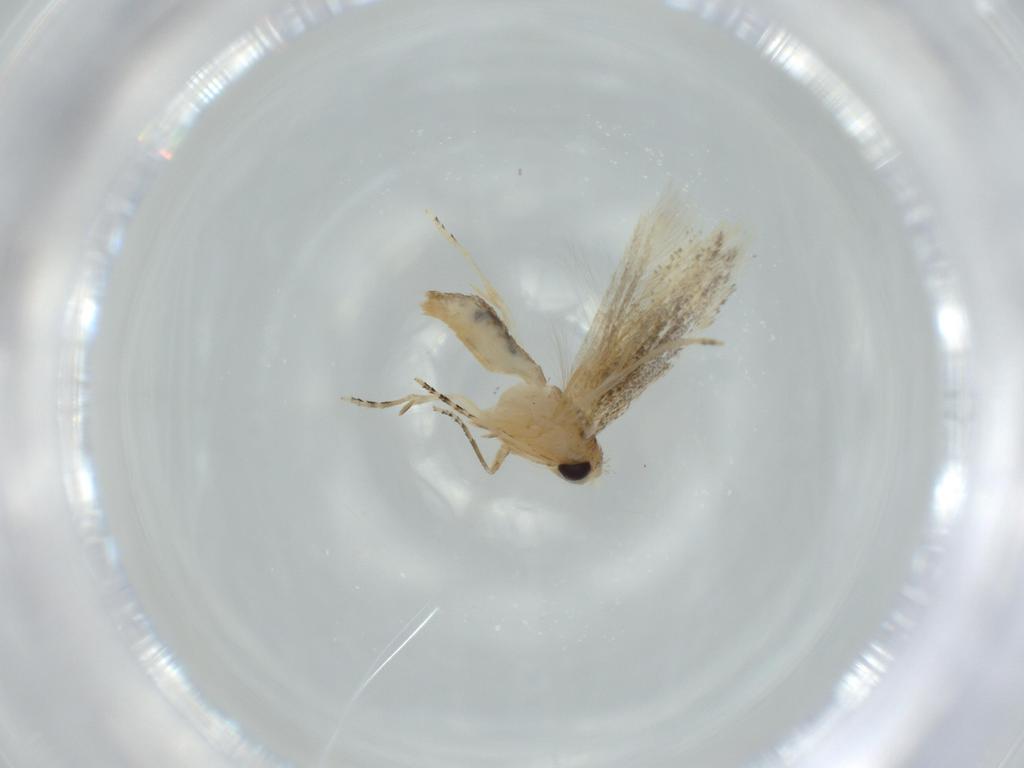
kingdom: Animalia
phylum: Arthropoda
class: Insecta
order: Lepidoptera
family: Bucculatricidae
